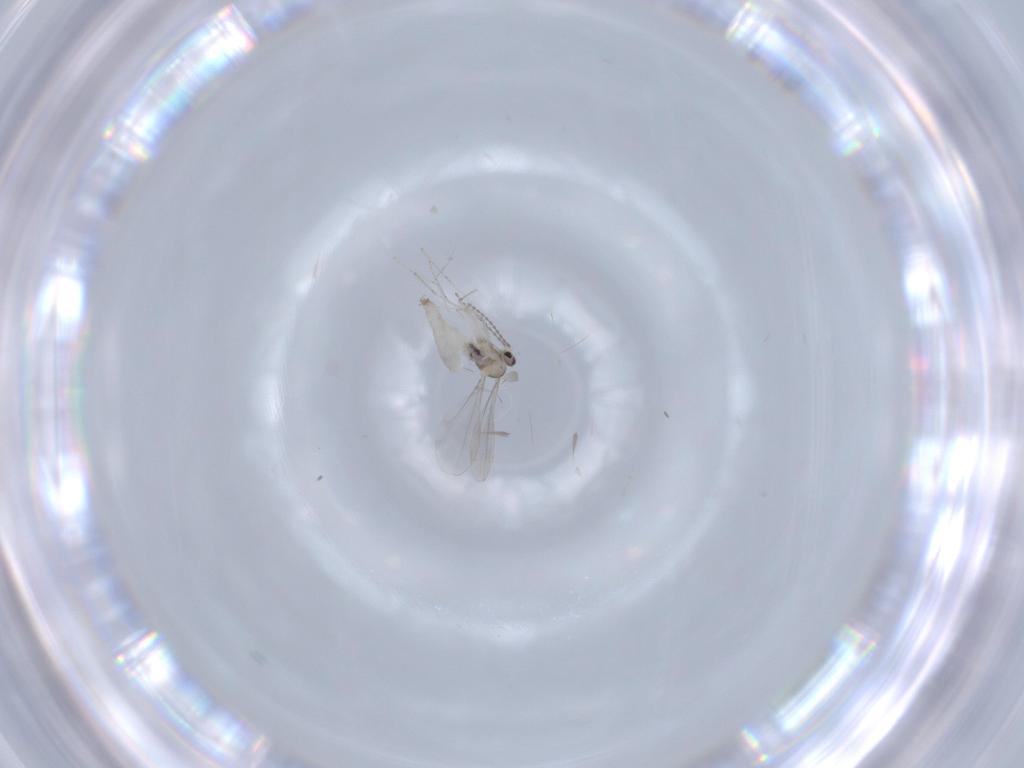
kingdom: Animalia
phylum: Arthropoda
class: Insecta
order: Diptera
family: Cecidomyiidae
